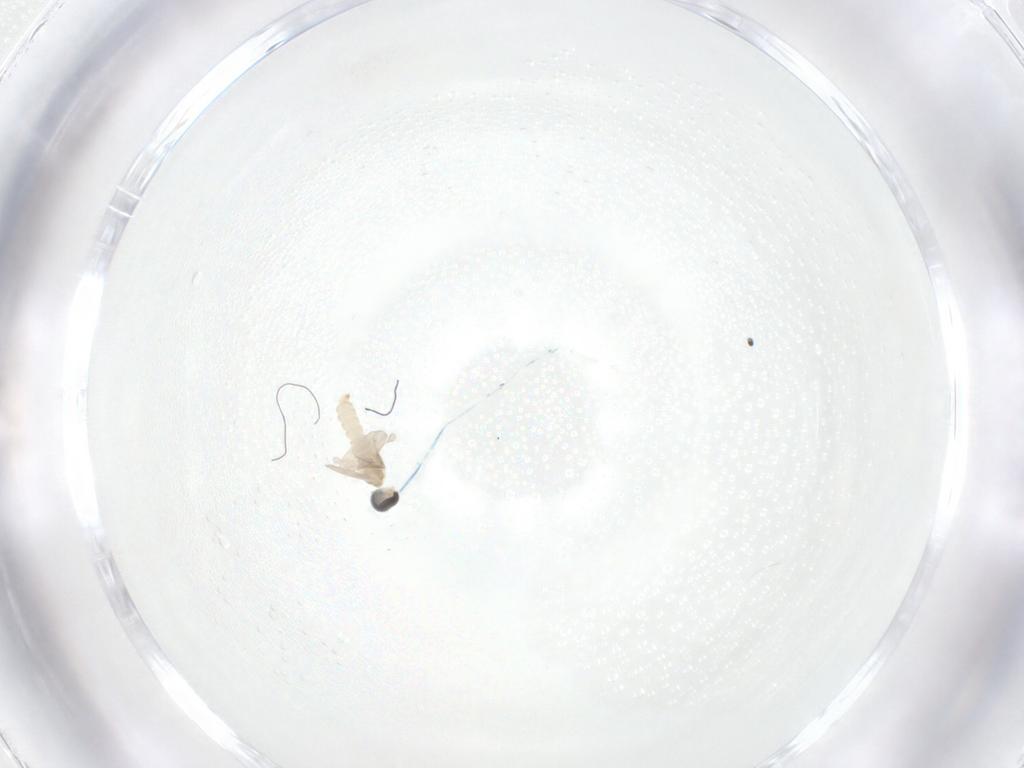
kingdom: Animalia
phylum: Arthropoda
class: Insecta
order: Diptera
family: Cecidomyiidae
